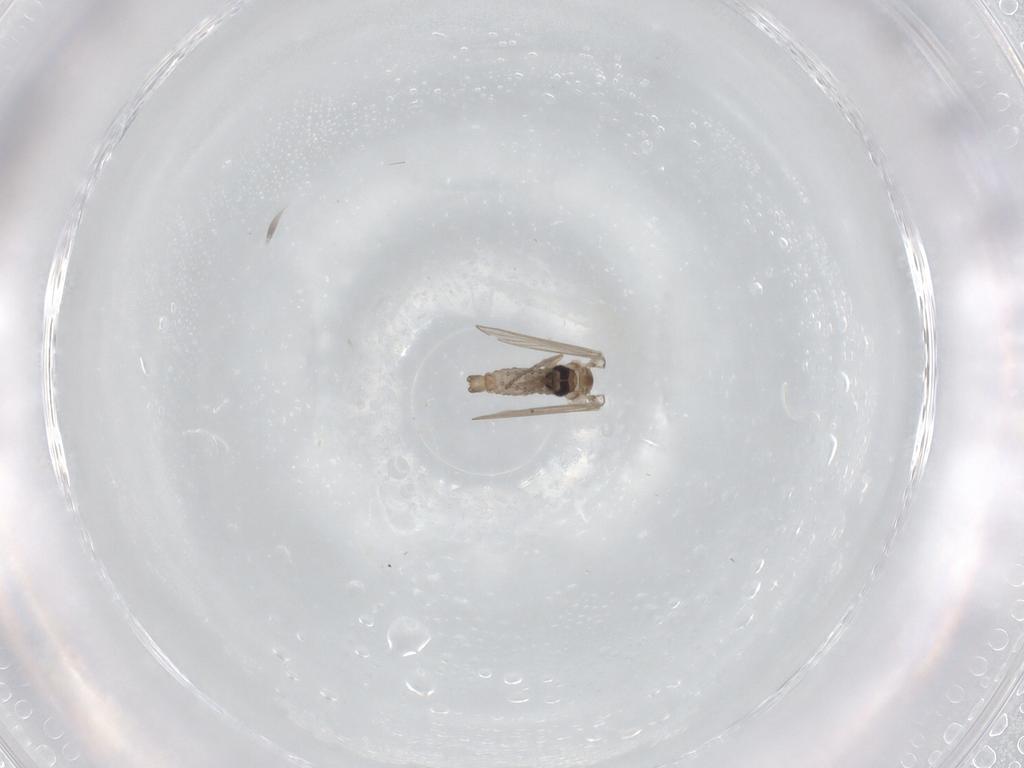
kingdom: Animalia
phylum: Arthropoda
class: Insecta
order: Diptera
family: Psychodidae
